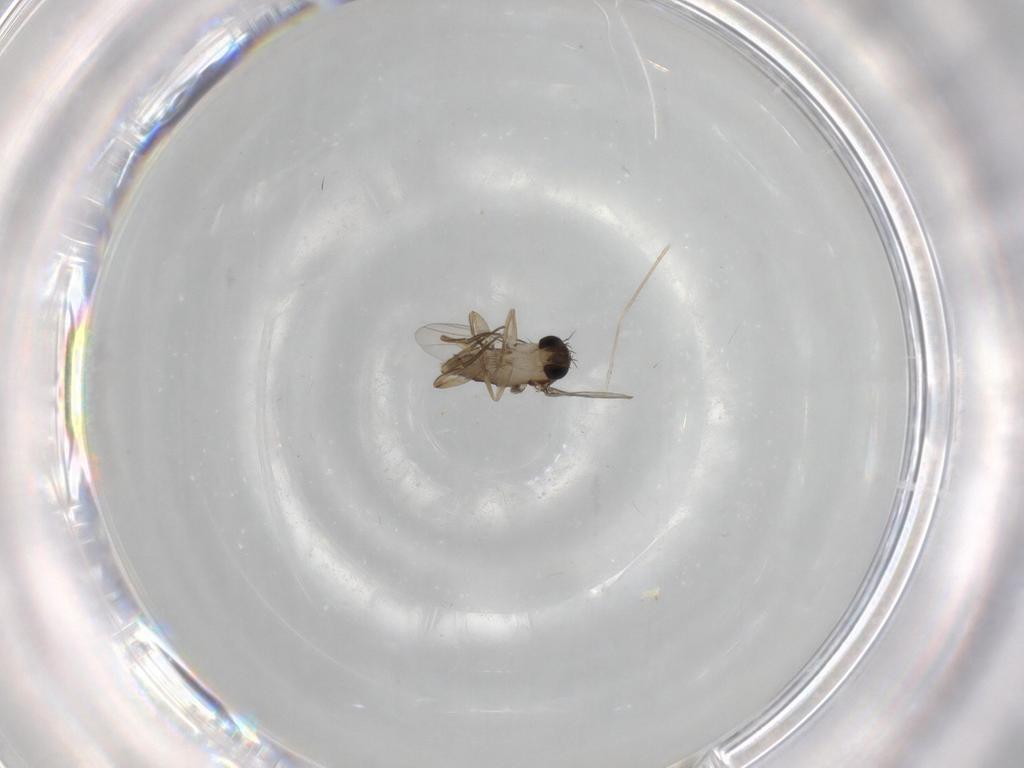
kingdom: Animalia
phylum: Arthropoda
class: Insecta
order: Diptera
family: Phoridae
